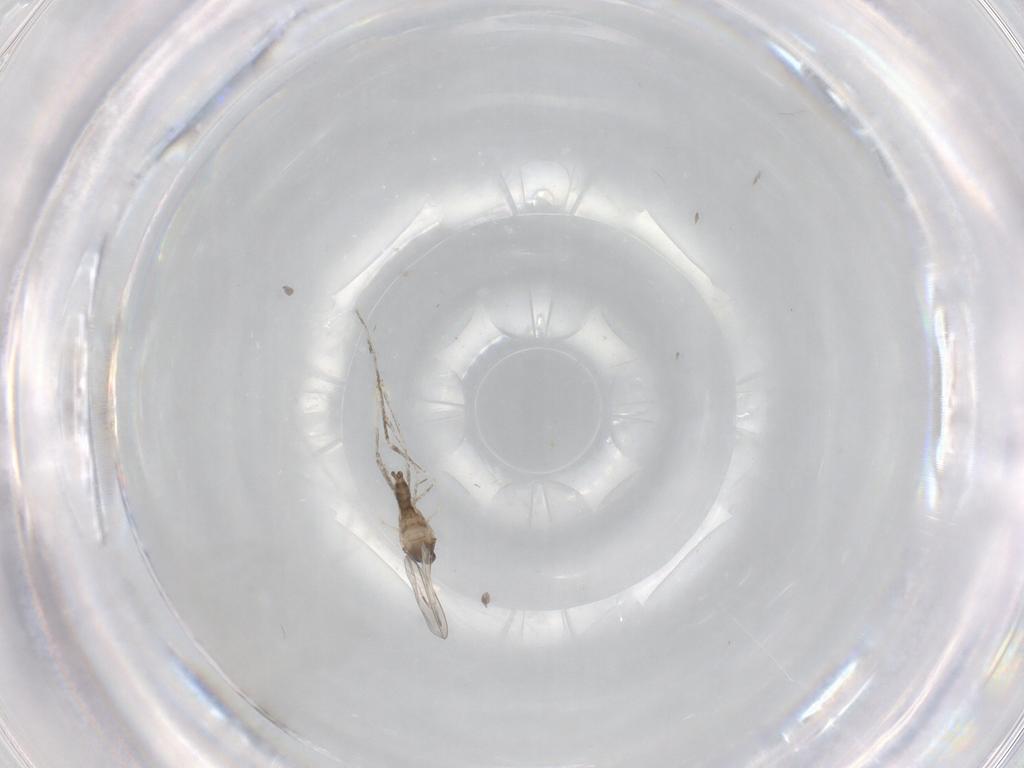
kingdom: Animalia
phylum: Arthropoda
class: Insecta
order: Diptera
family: Cecidomyiidae
